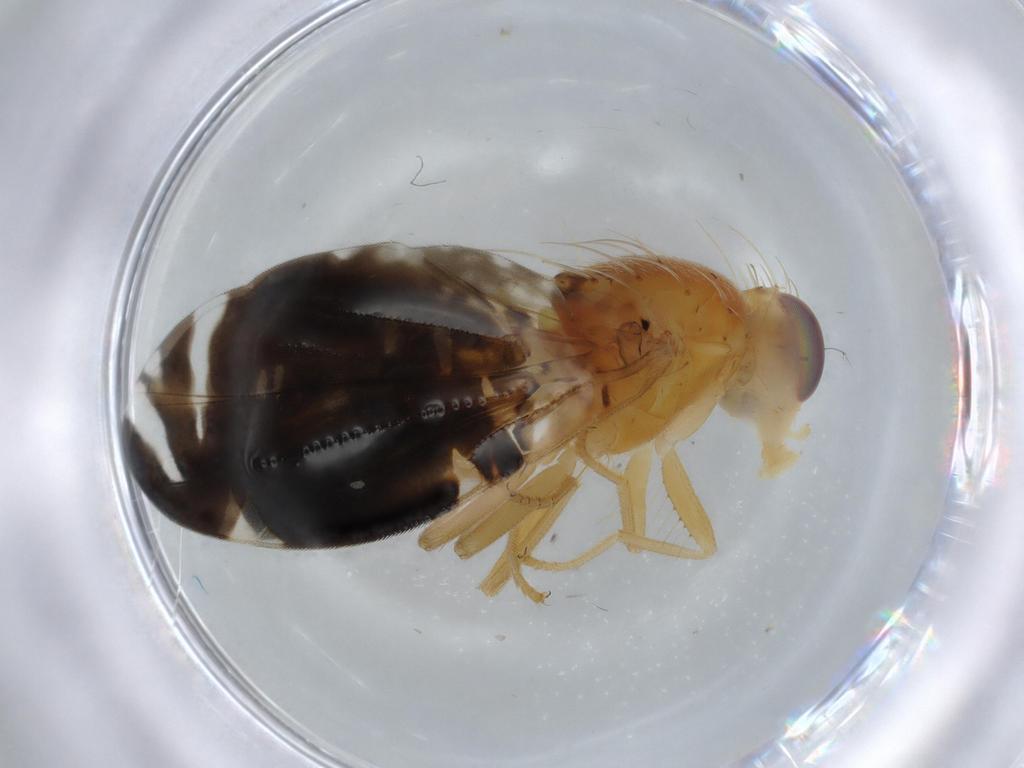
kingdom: Animalia
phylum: Arthropoda
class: Insecta
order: Diptera
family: Tephritidae
